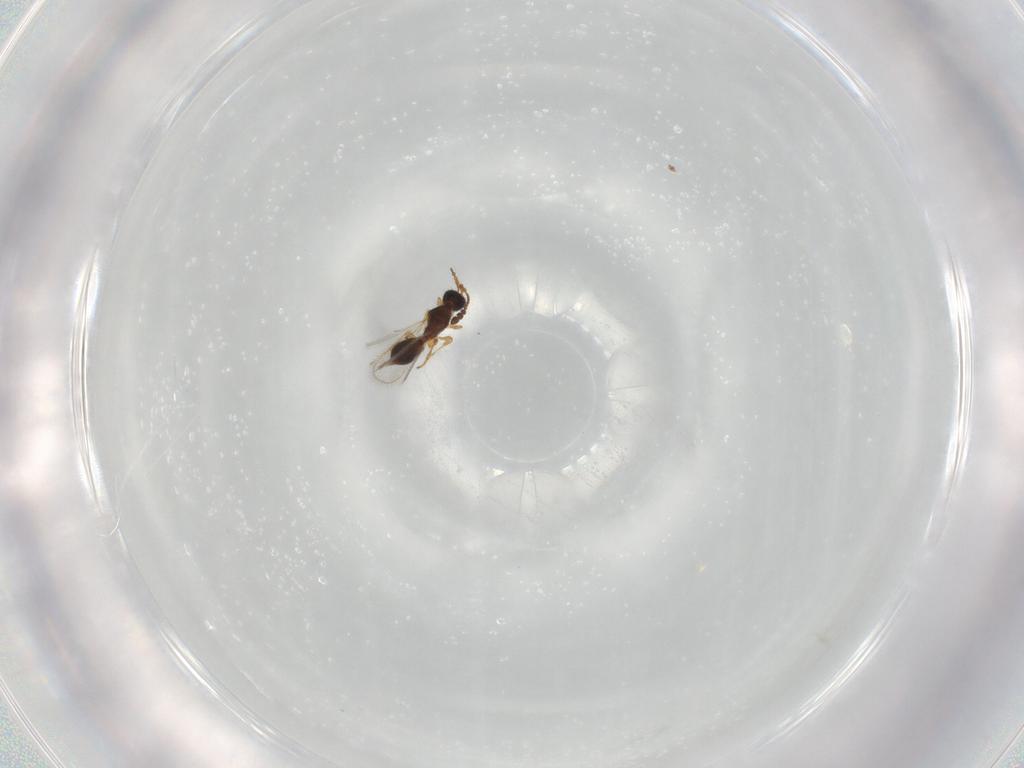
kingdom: Animalia
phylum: Arthropoda
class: Insecta
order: Hymenoptera
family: Diapriidae
